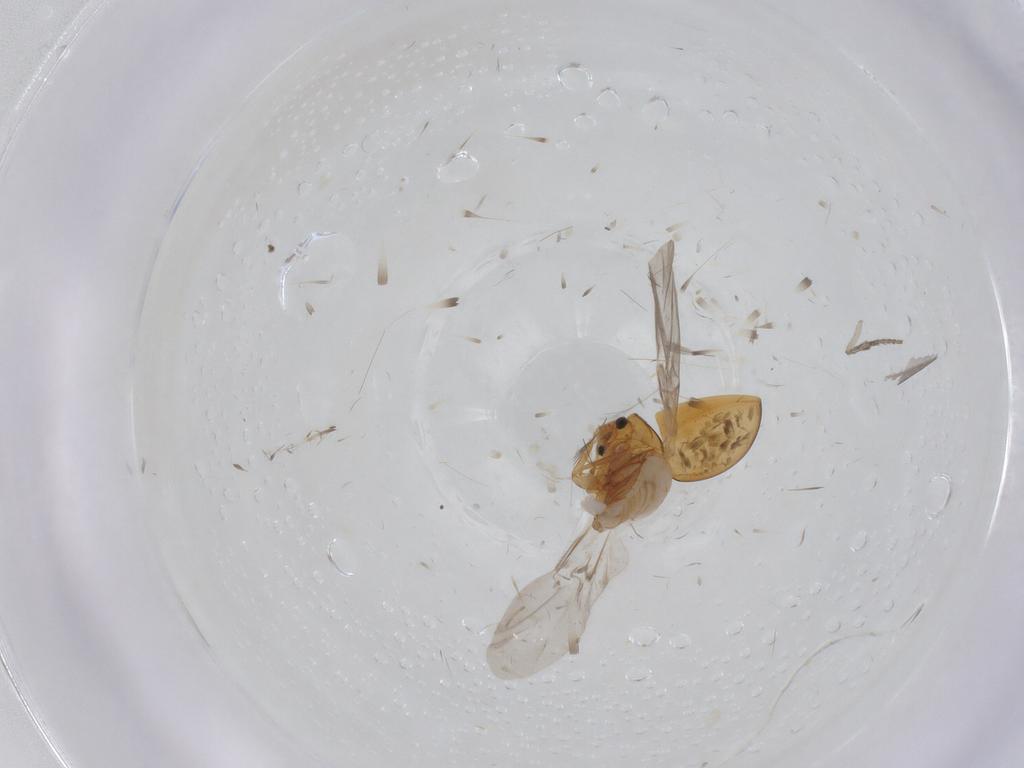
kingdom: Animalia
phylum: Arthropoda
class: Insecta
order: Coleoptera
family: Phalacridae
